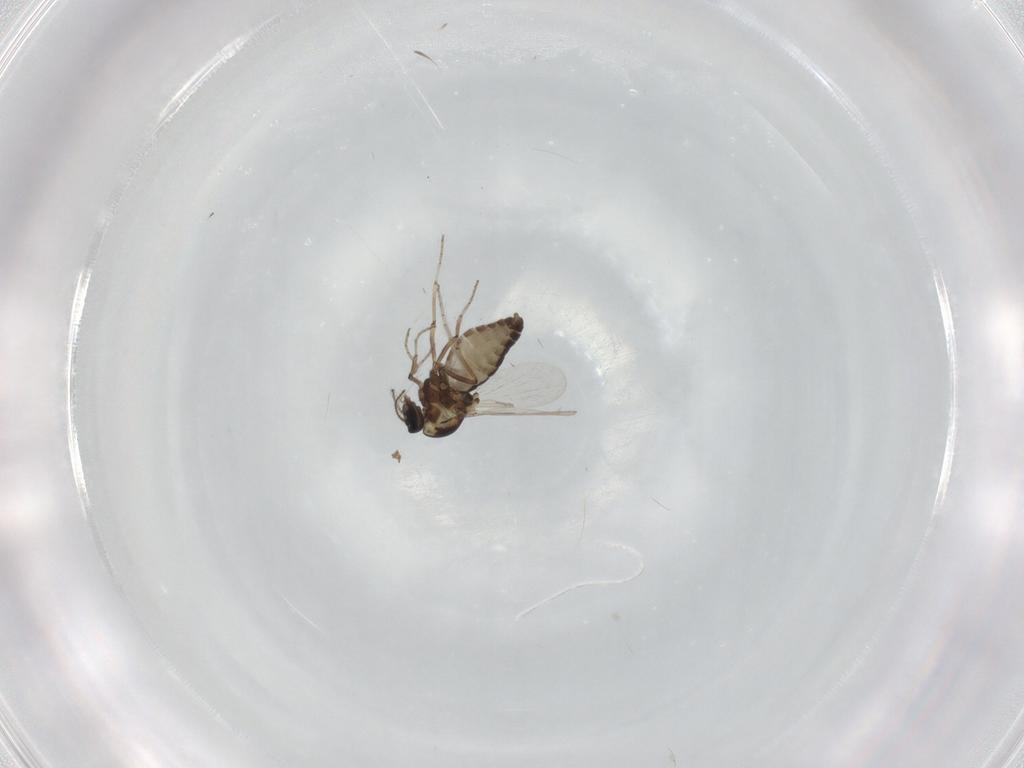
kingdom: Animalia
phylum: Arthropoda
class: Insecta
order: Diptera
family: Ceratopogonidae
